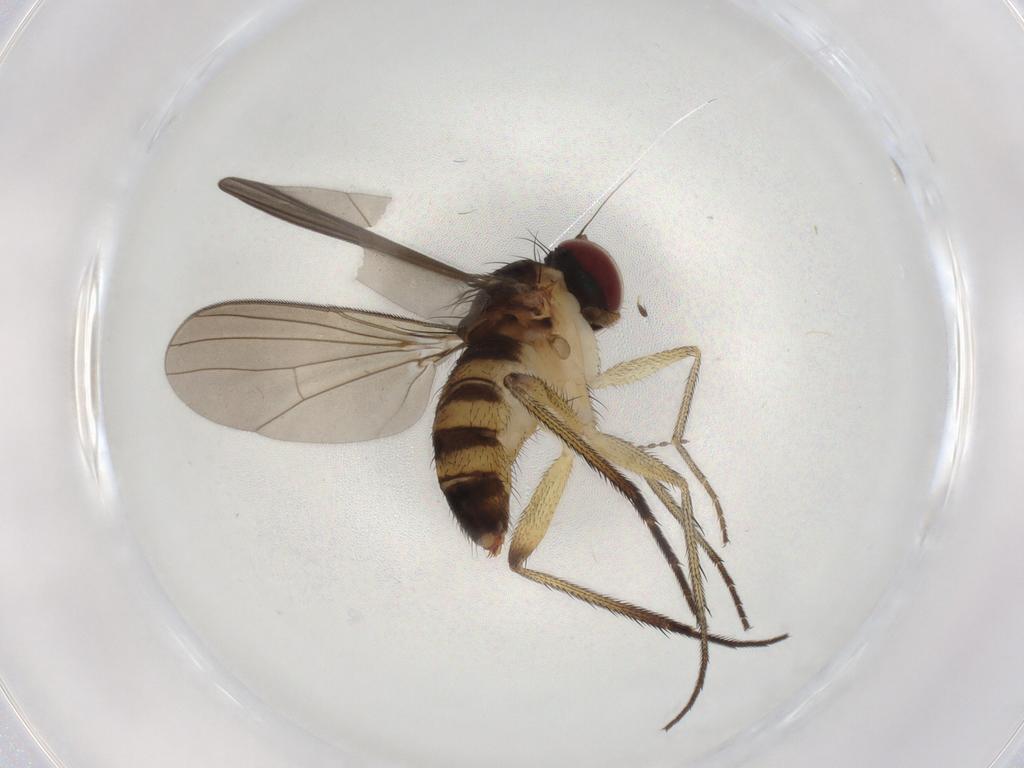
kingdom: Animalia
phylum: Arthropoda
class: Insecta
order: Diptera
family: Dolichopodidae
